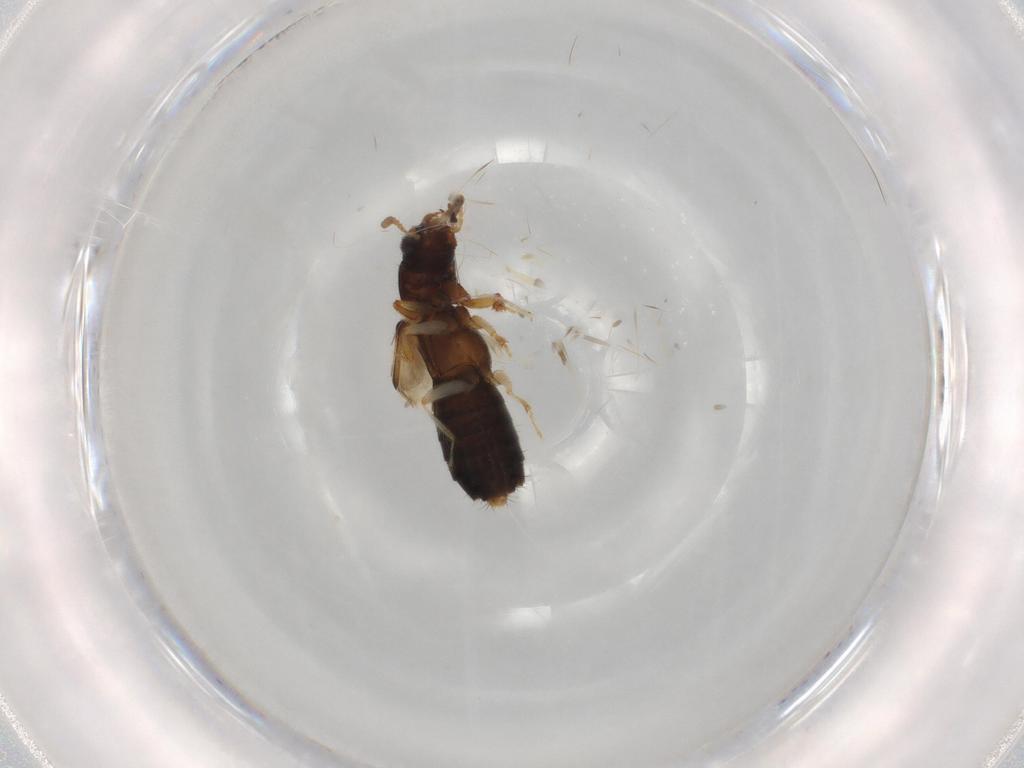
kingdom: Animalia
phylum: Arthropoda
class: Insecta
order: Coleoptera
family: Staphylinidae
